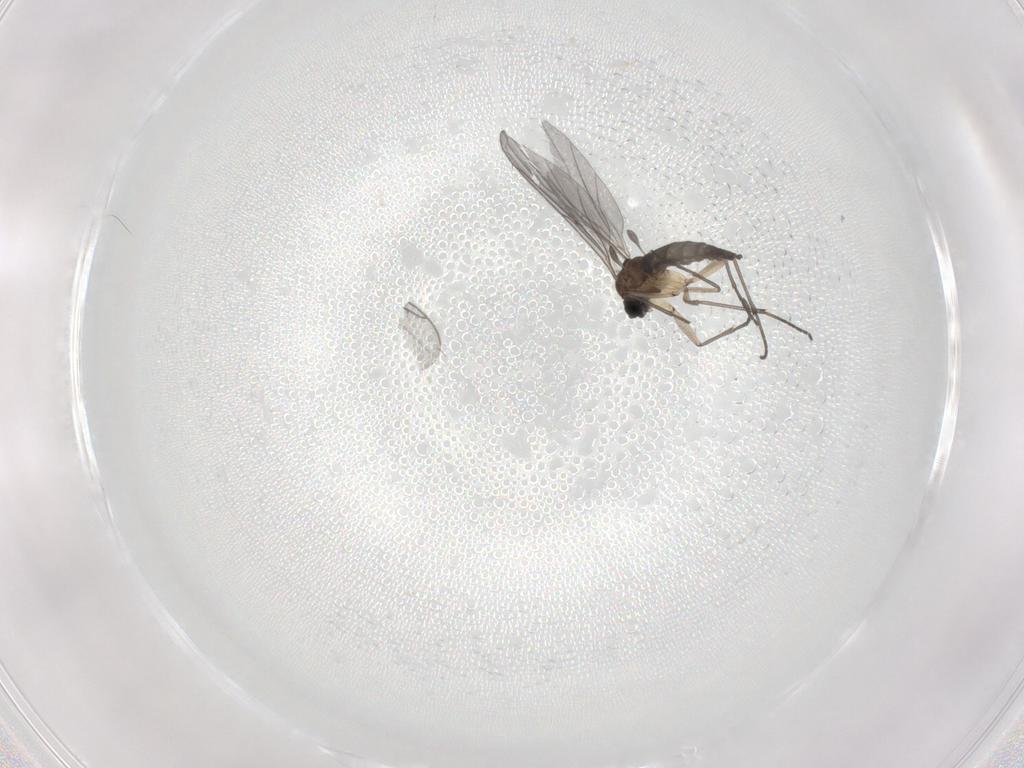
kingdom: Animalia
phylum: Arthropoda
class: Insecta
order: Diptera
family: Sciaridae
